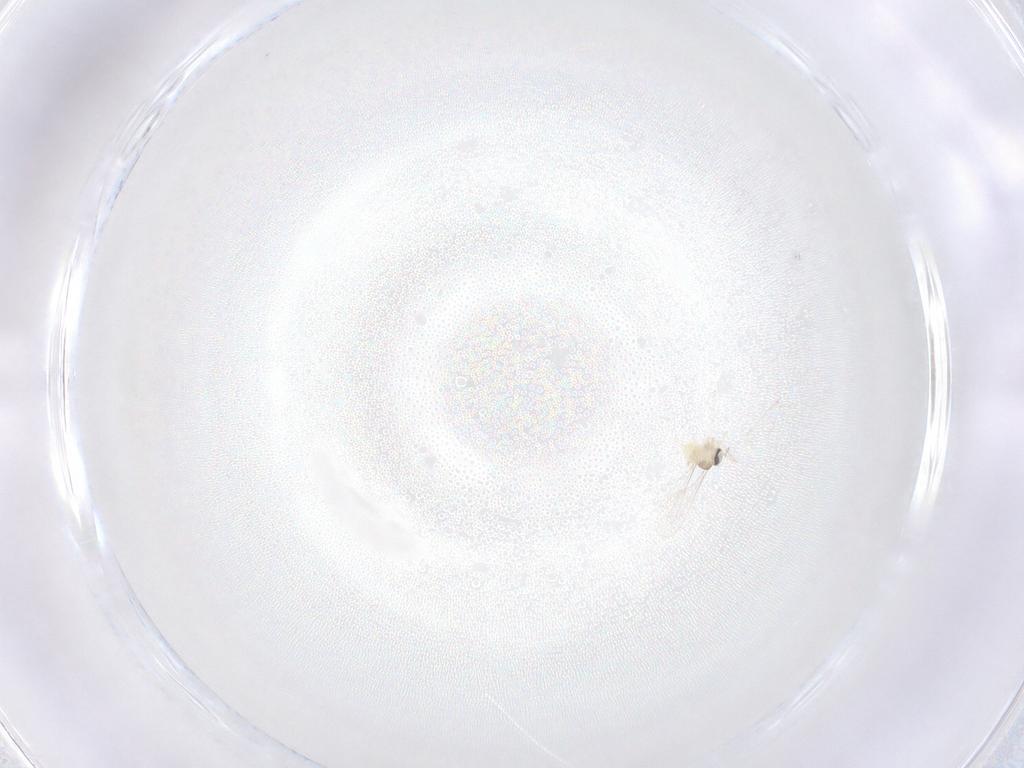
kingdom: Animalia
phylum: Arthropoda
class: Insecta
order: Diptera
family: Cecidomyiidae
